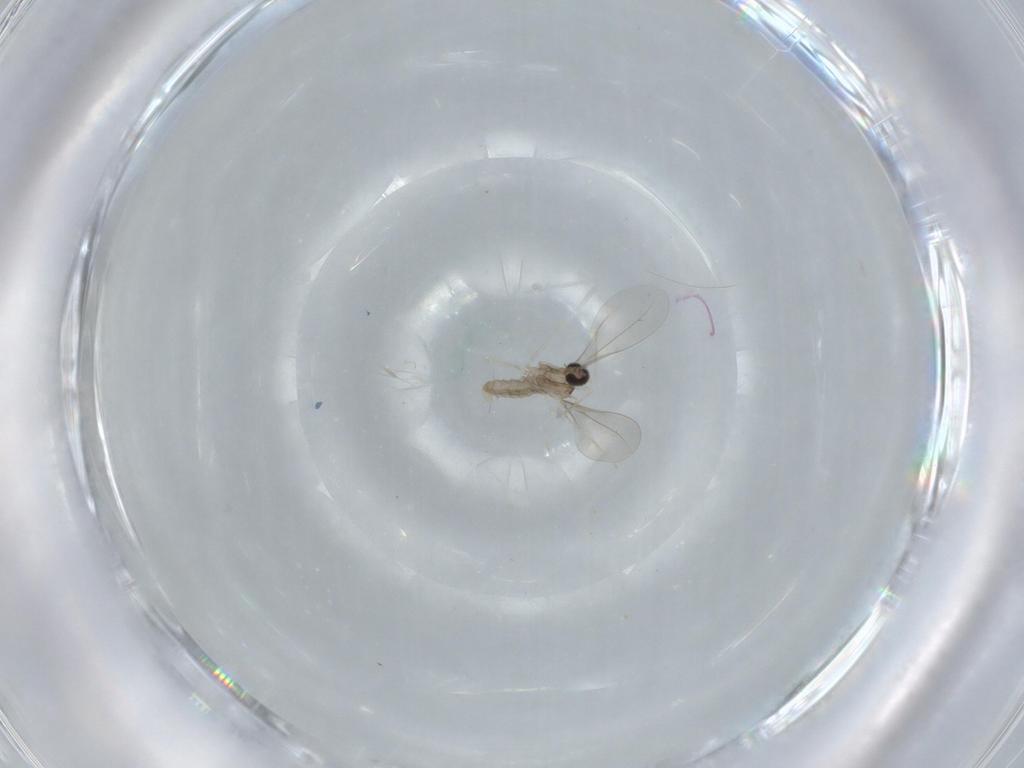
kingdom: Animalia
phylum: Arthropoda
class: Insecta
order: Diptera
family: Cecidomyiidae
